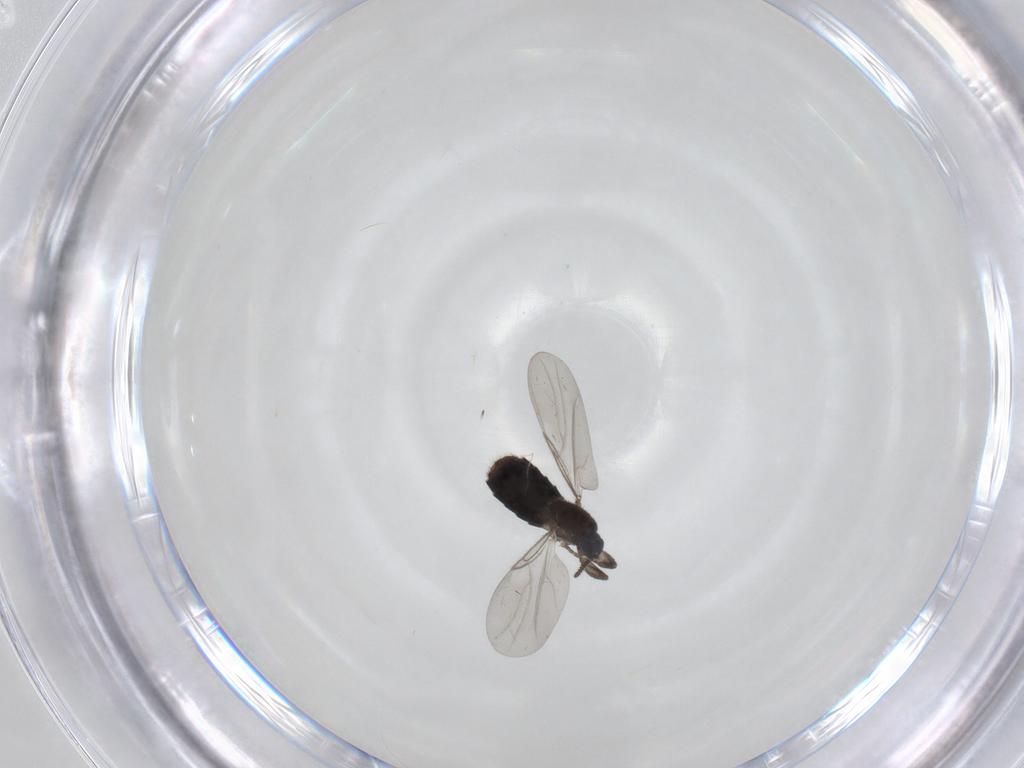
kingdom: Animalia
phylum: Arthropoda
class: Insecta
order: Diptera
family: Scatopsidae
